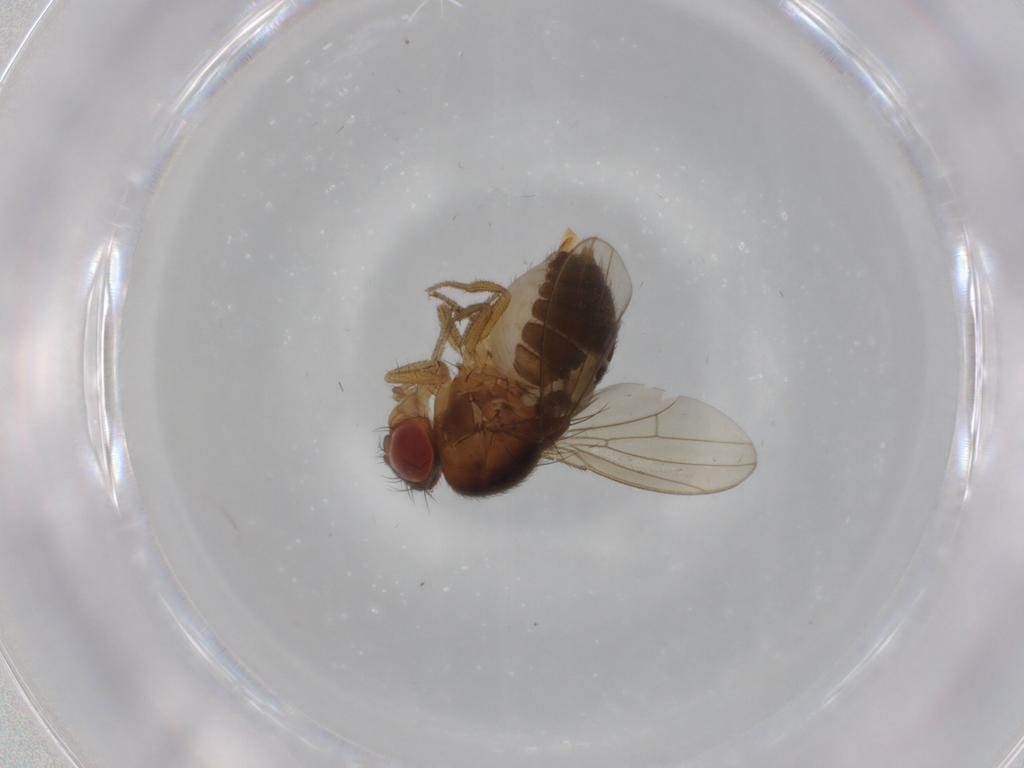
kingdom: Animalia
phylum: Arthropoda
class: Insecta
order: Diptera
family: Drosophilidae
